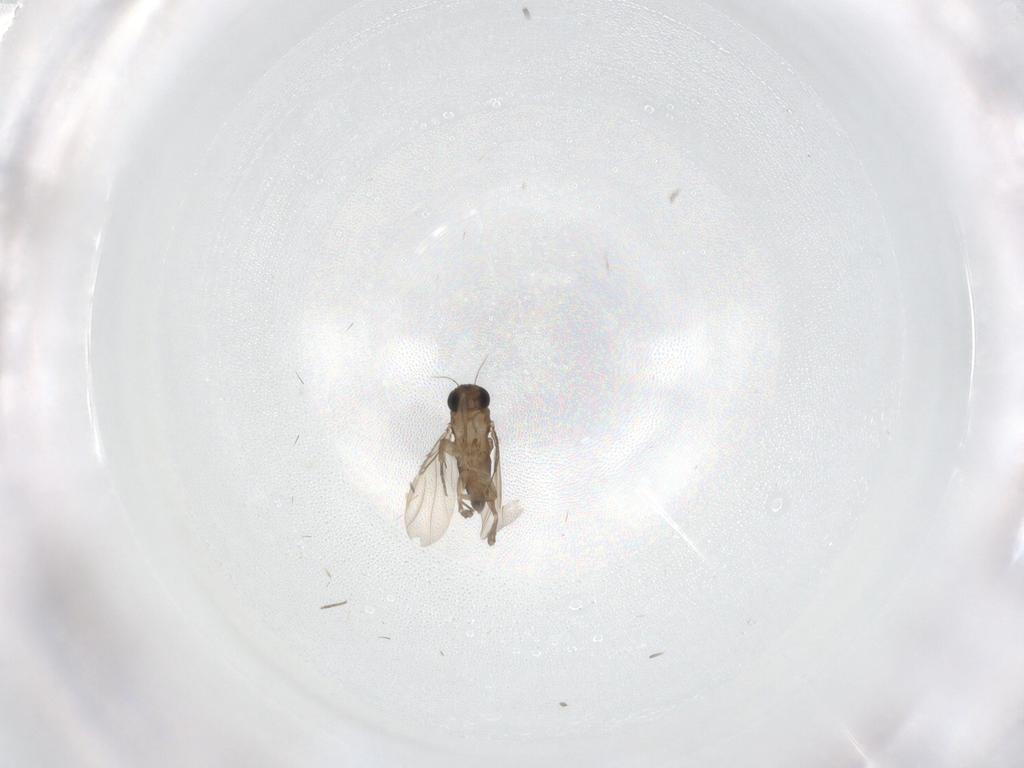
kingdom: Animalia
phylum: Arthropoda
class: Insecta
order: Diptera
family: Phoridae
